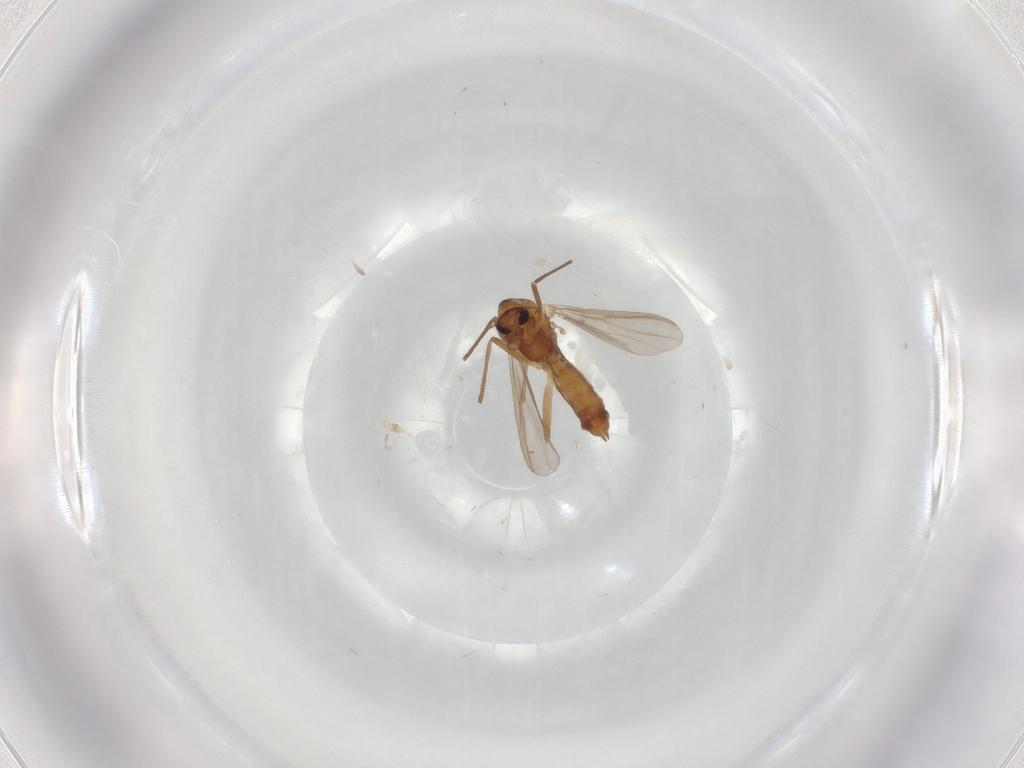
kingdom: Animalia
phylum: Arthropoda
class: Insecta
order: Diptera
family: Chironomidae
